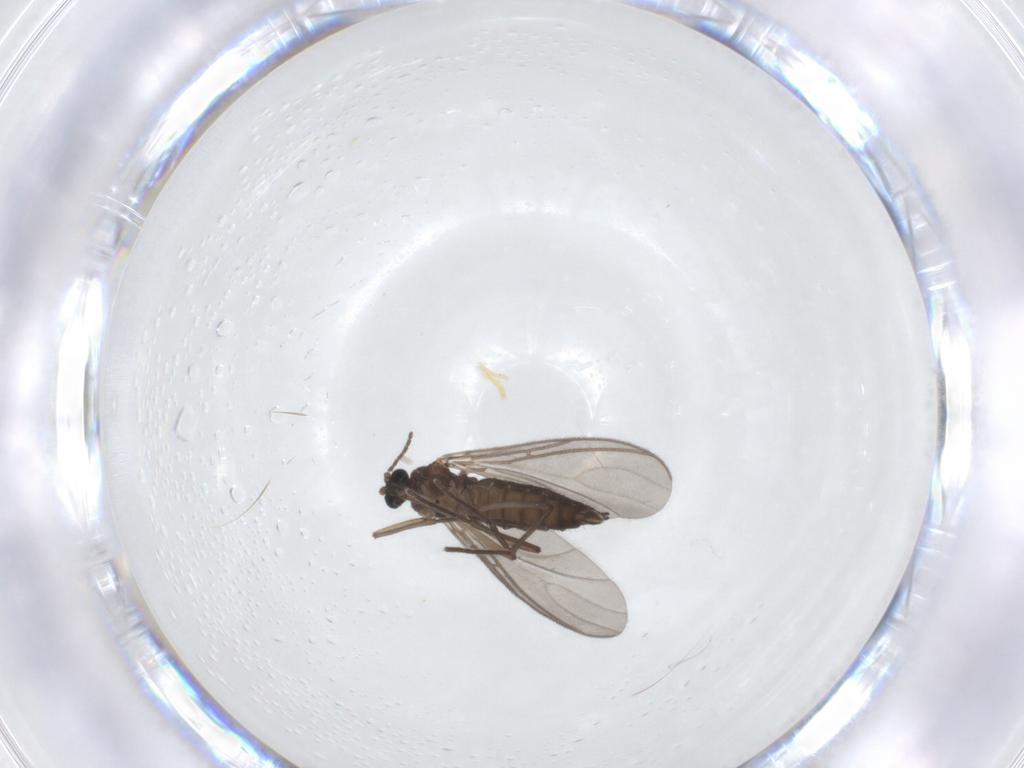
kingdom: Animalia
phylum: Arthropoda
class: Insecta
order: Diptera
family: Sciaridae
